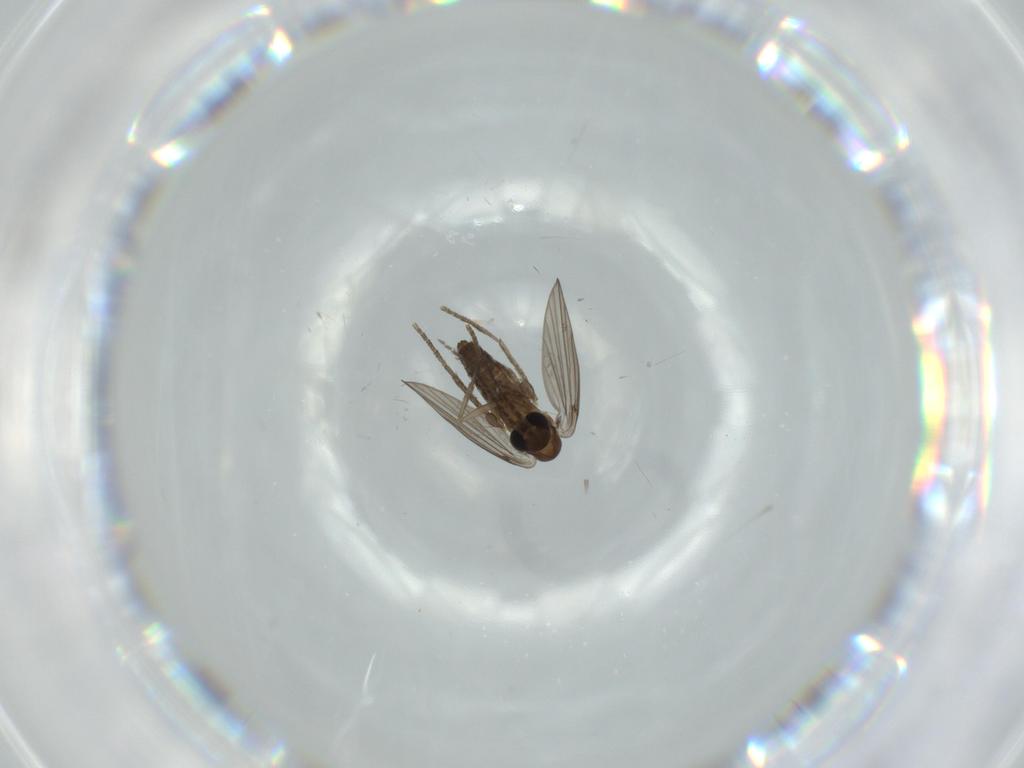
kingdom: Animalia
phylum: Arthropoda
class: Insecta
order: Diptera
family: Psychodidae
